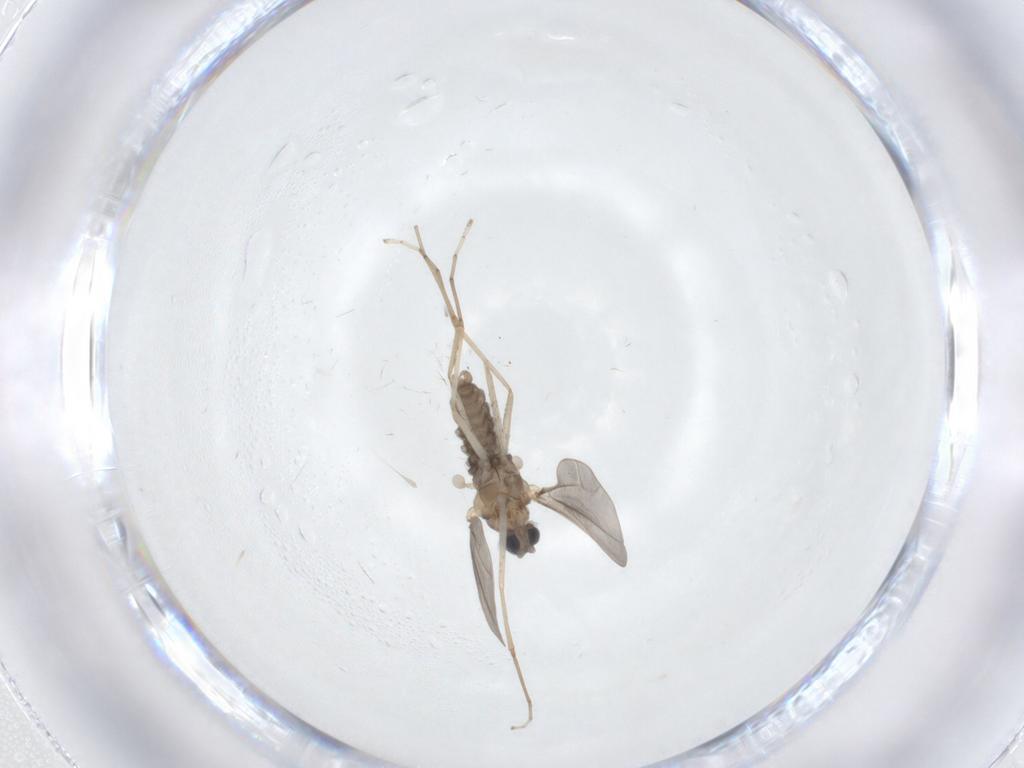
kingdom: Animalia
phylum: Arthropoda
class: Insecta
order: Diptera
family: Cecidomyiidae
